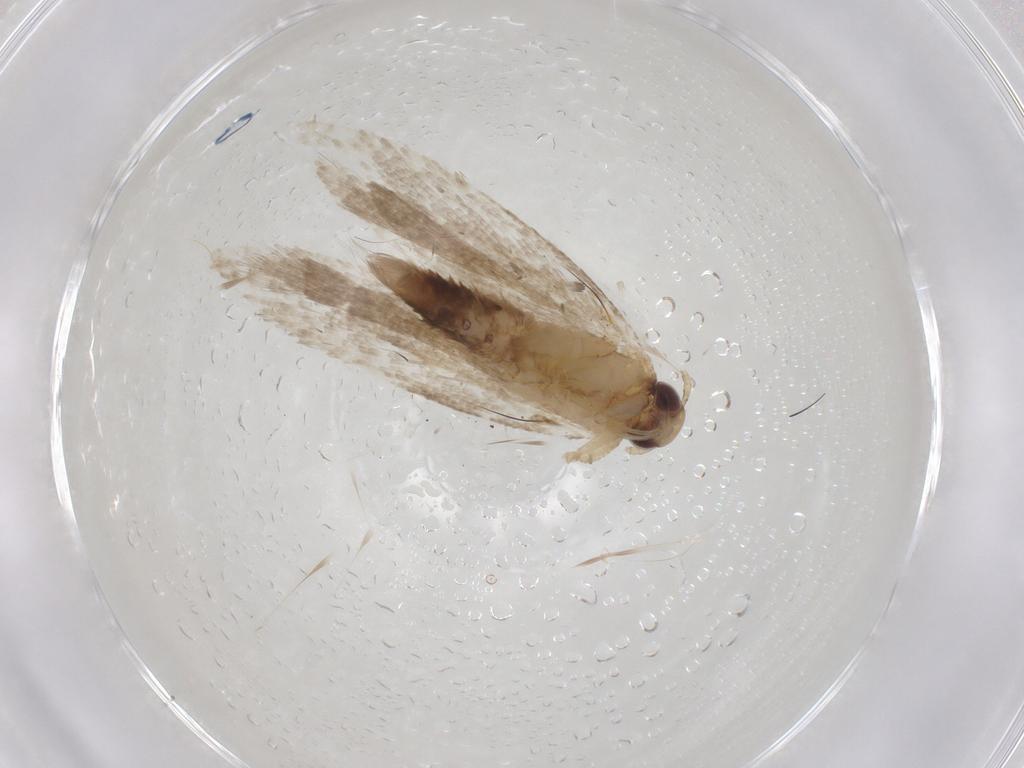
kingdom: Animalia
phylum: Arthropoda
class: Insecta
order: Lepidoptera
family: Gelechiidae
